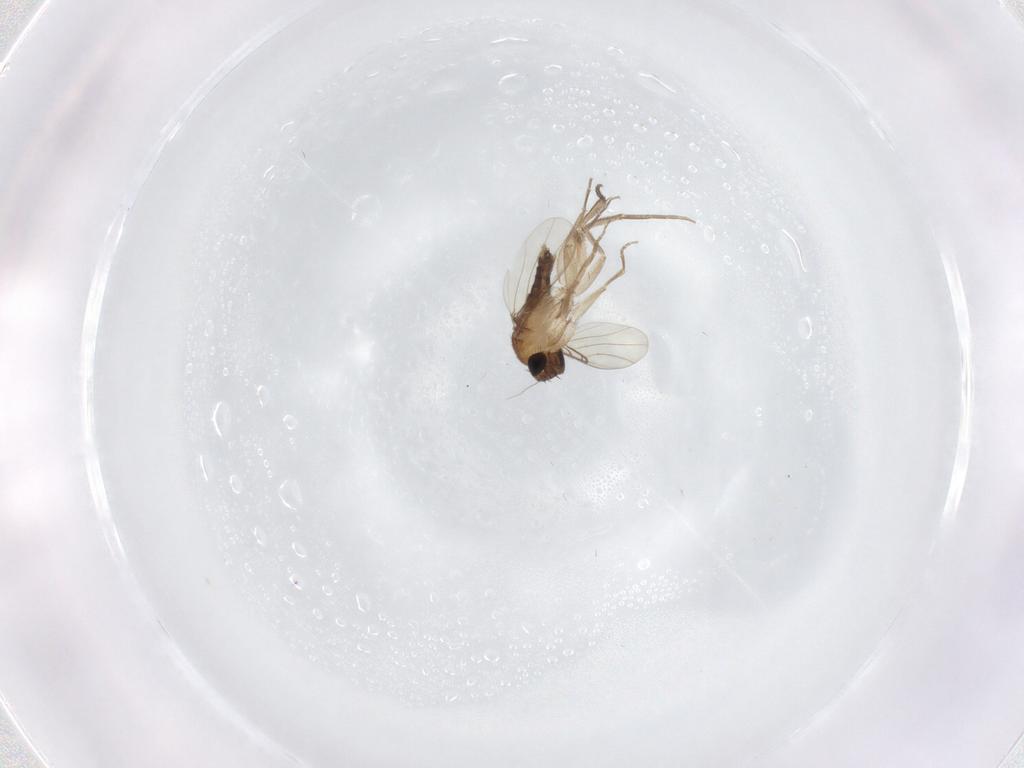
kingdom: Animalia
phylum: Arthropoda
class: Insecta
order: Diptera
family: Phoridae
